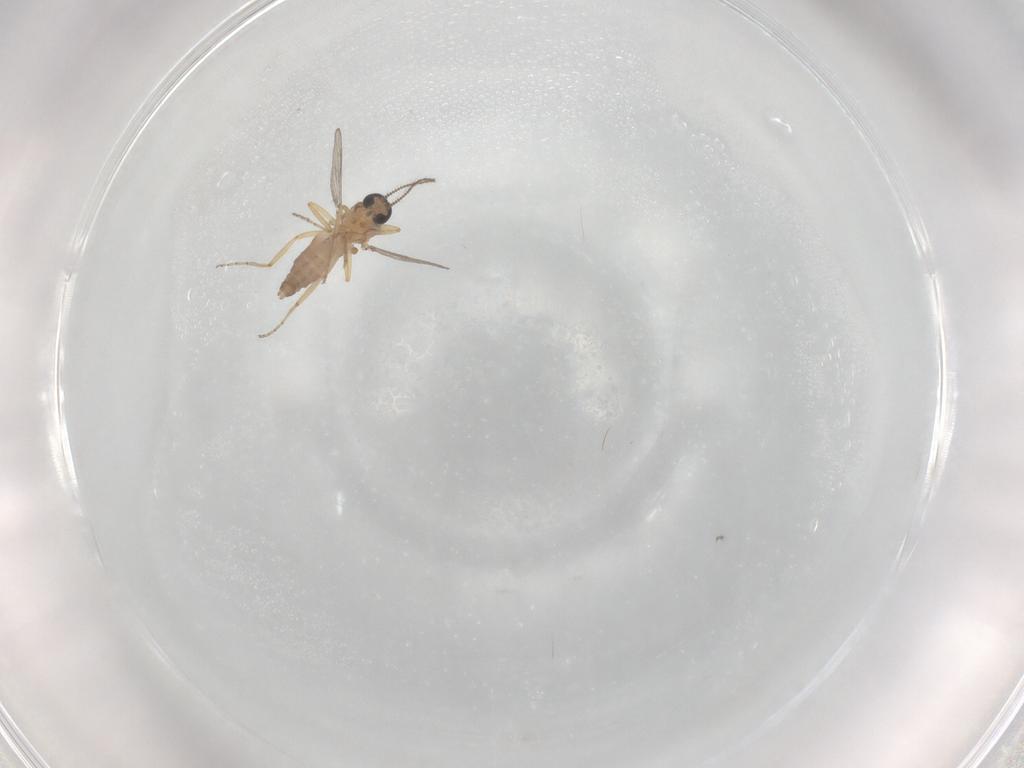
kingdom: Animalia
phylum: Arthropoda
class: Insecta
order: Diptera
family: Ceratopogonidae
